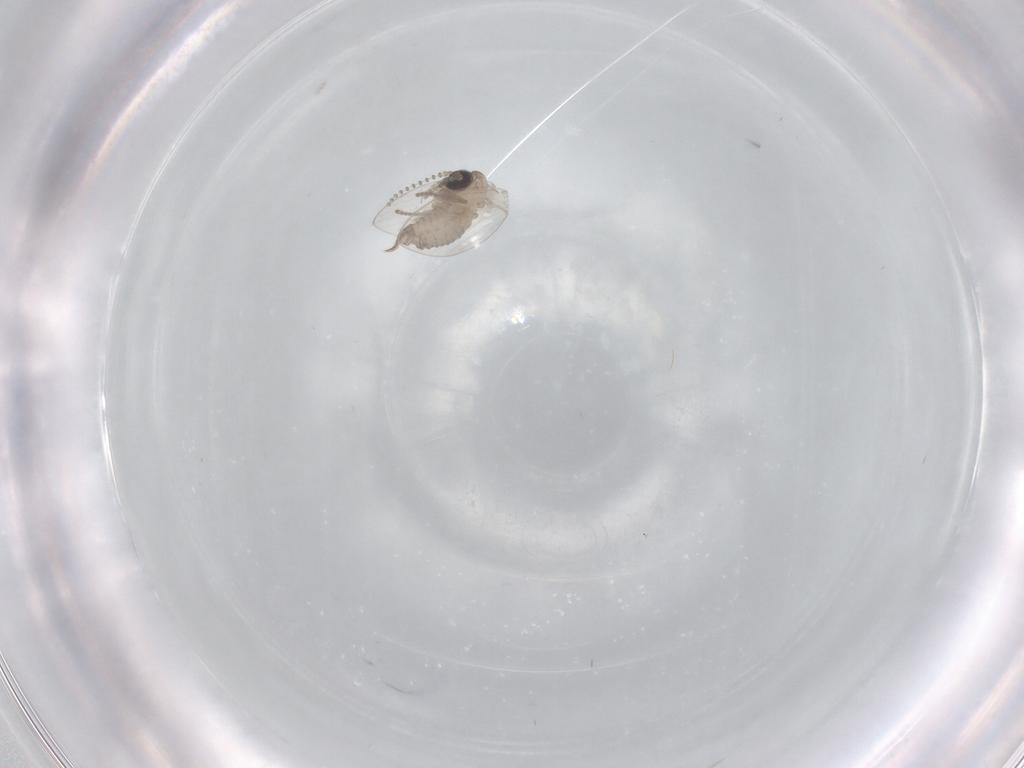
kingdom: Animalia
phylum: Arthropoda
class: Insecta
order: Diptera
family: Psychodidae
